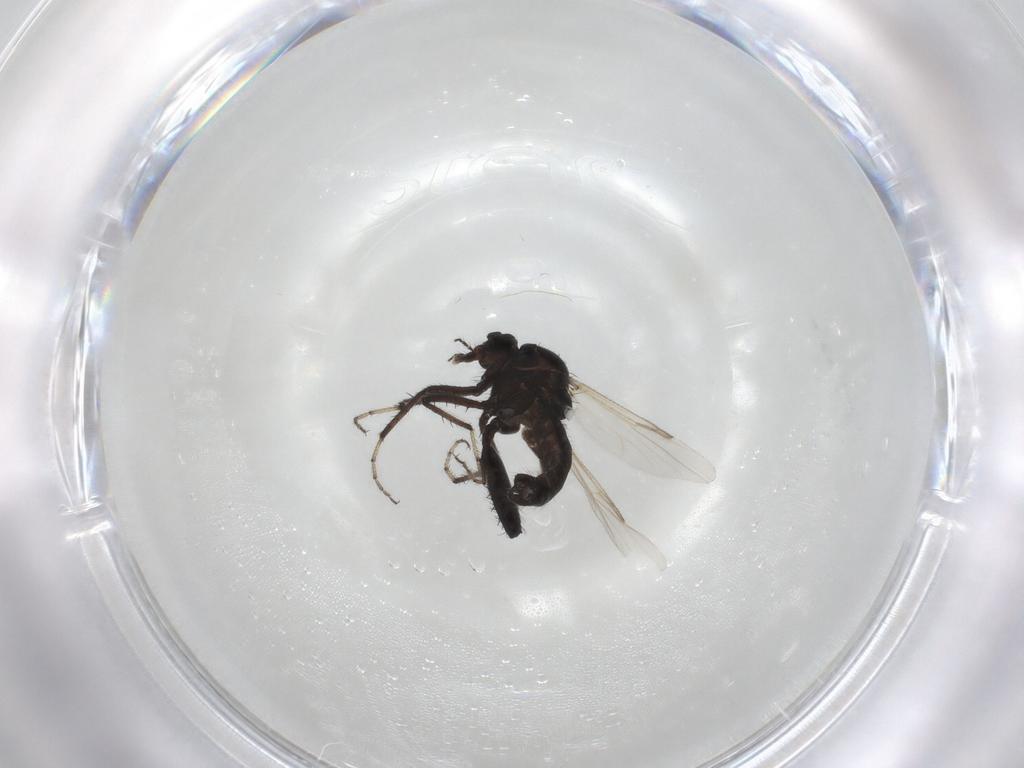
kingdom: Animalia
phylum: Arthropoda
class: Insecta
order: Diptera
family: Ceratopogonidae
